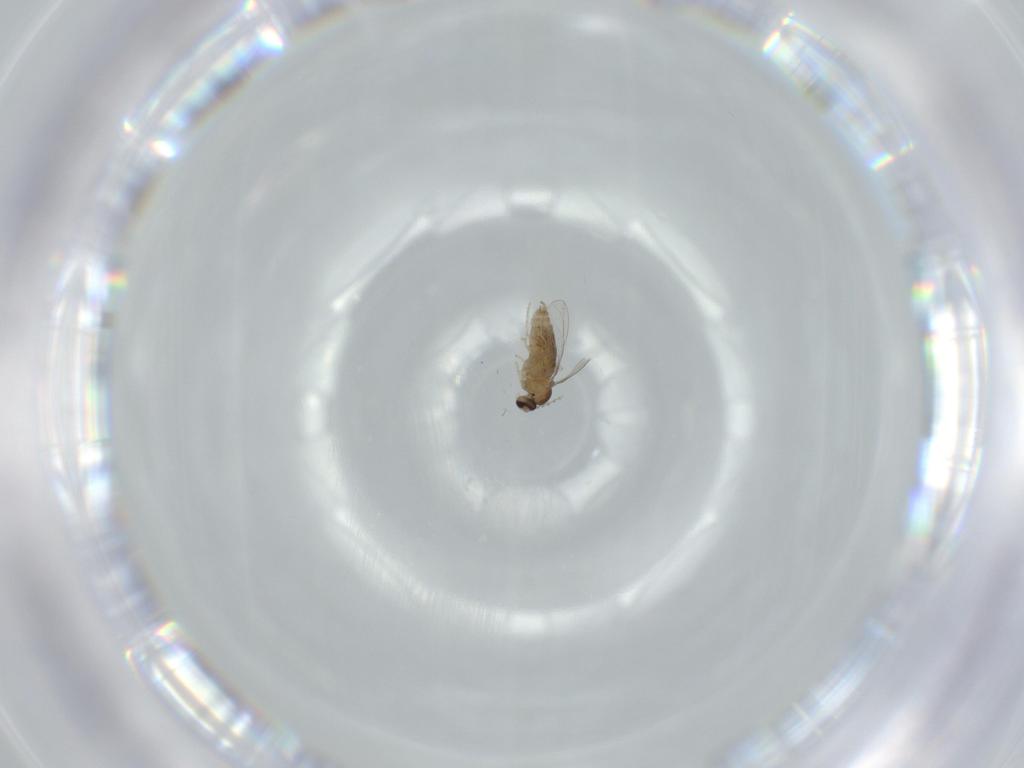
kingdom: Animalia
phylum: Arthropoda
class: Insecta
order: Diptera
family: Cecidomyiidae
